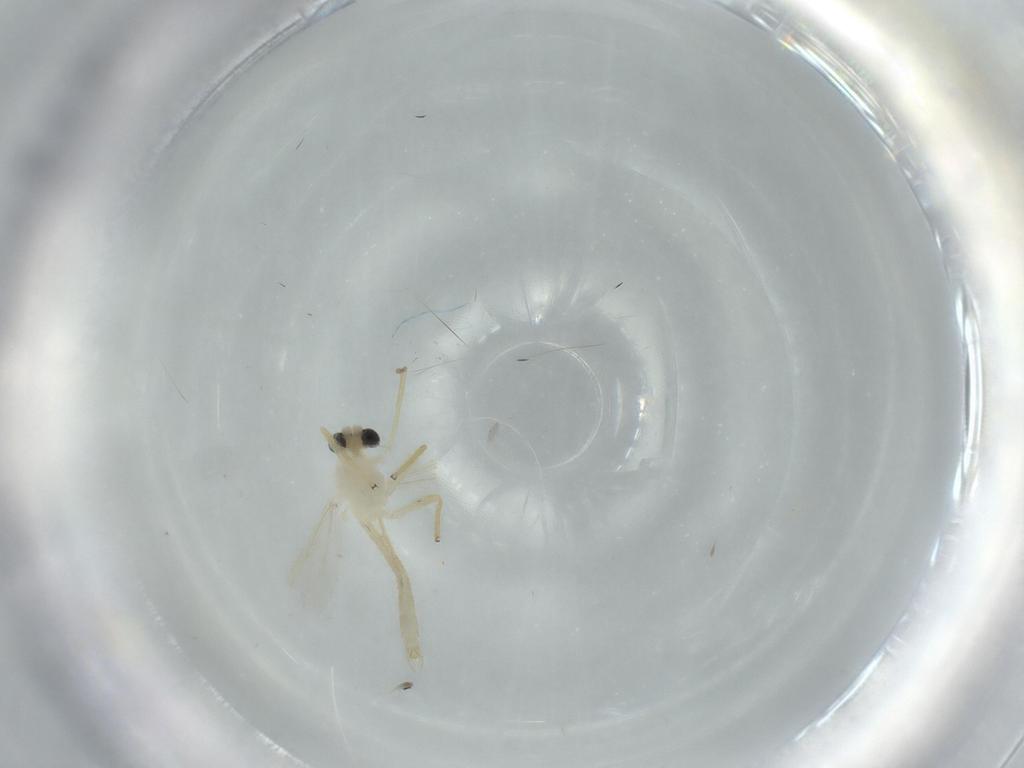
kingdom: Animalia
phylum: Arthropoda
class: Insecta
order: Diptera
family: Chironomidae
